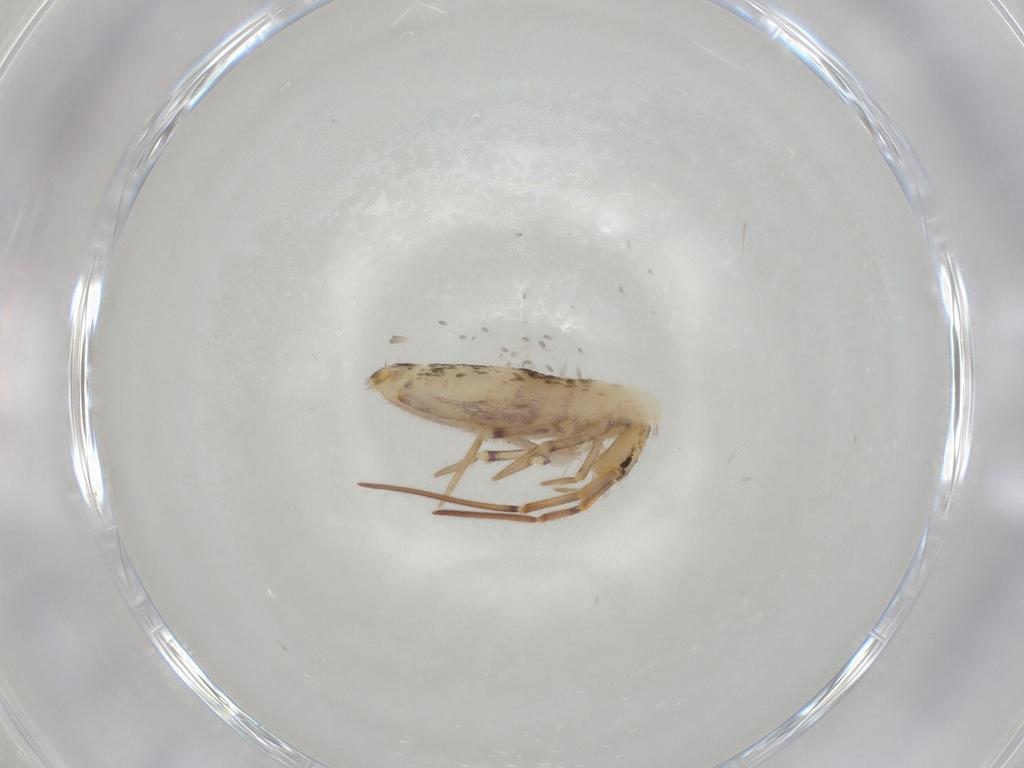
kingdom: Animalia
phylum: Arthropoda
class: Collembola
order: Poduromorpha
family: Hypogastruridae
